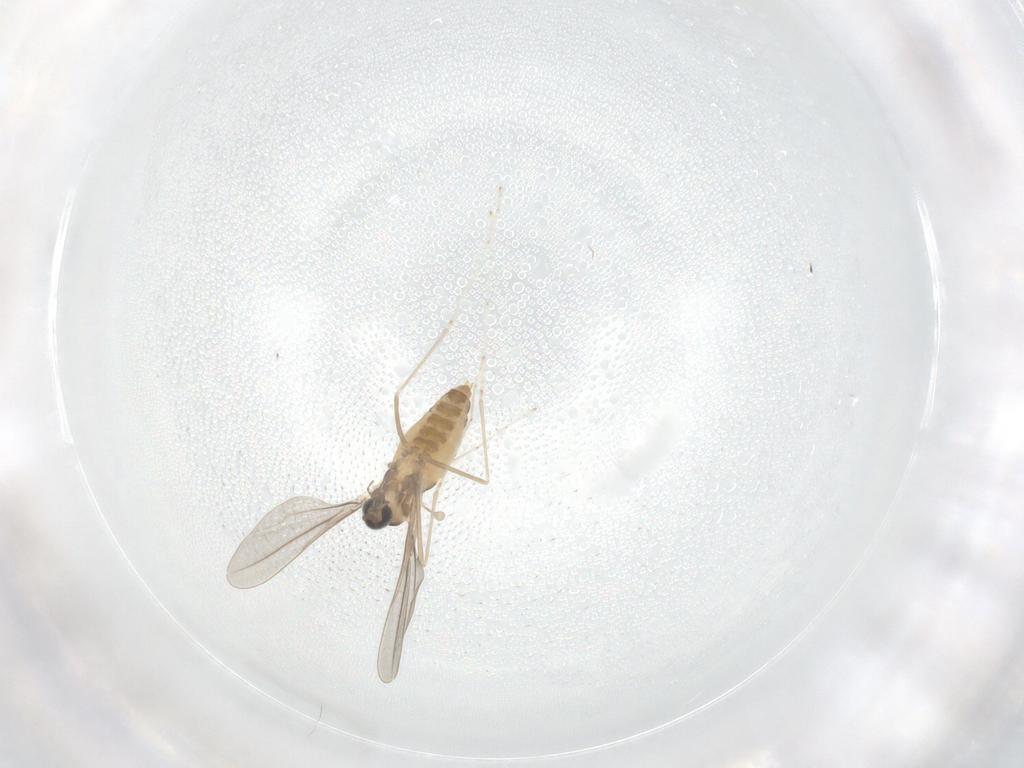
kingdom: Animalia
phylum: Arthropoda
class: Insecta
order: Diptera
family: Cecidomyiidae
